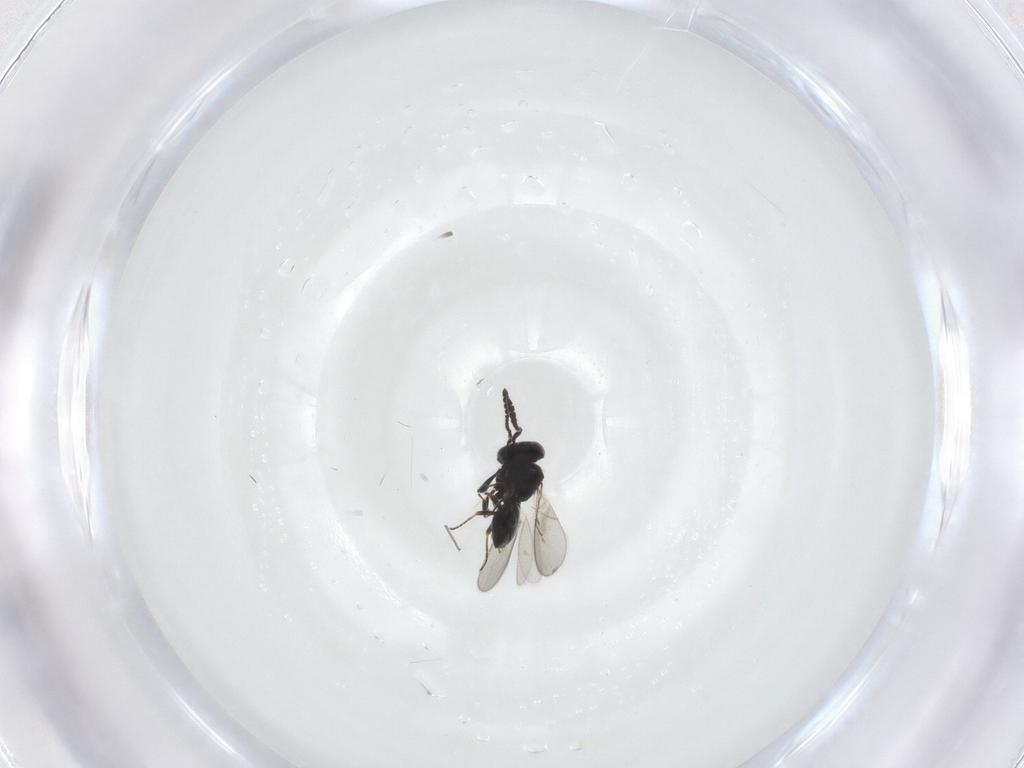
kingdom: Animalia
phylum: Arthropoda
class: Insecta
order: Hymenoptera
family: Scelionidae
